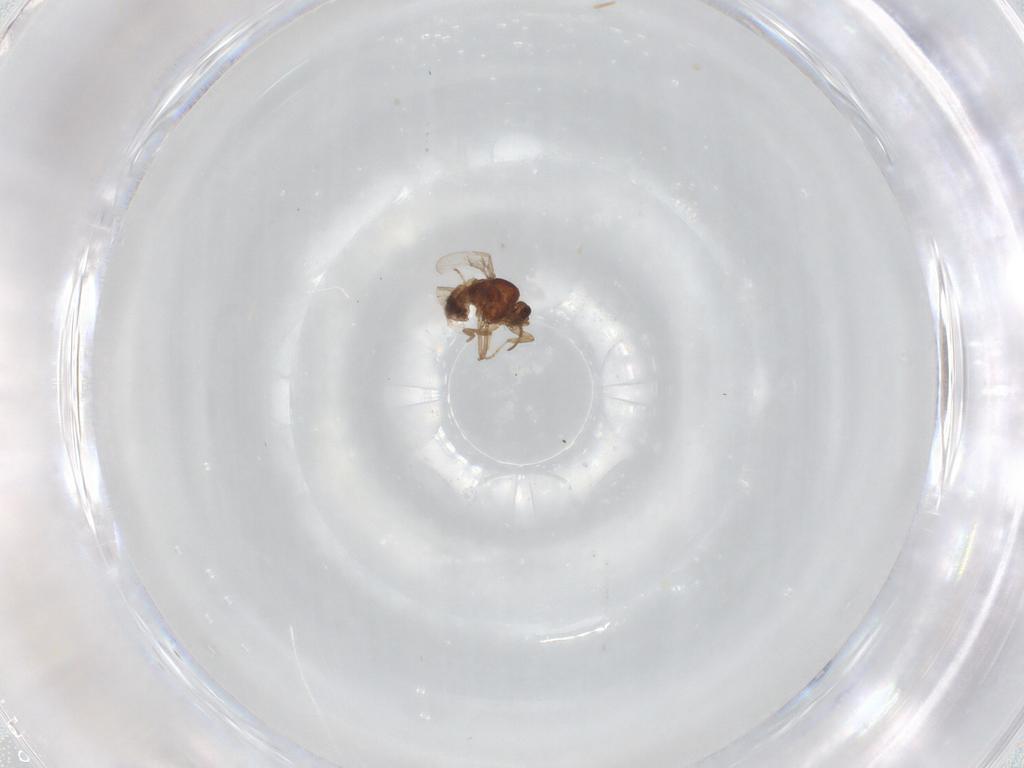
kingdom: Animalia
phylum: Arthropoda
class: Insecta
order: Diptera
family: Ceratopogonidae
